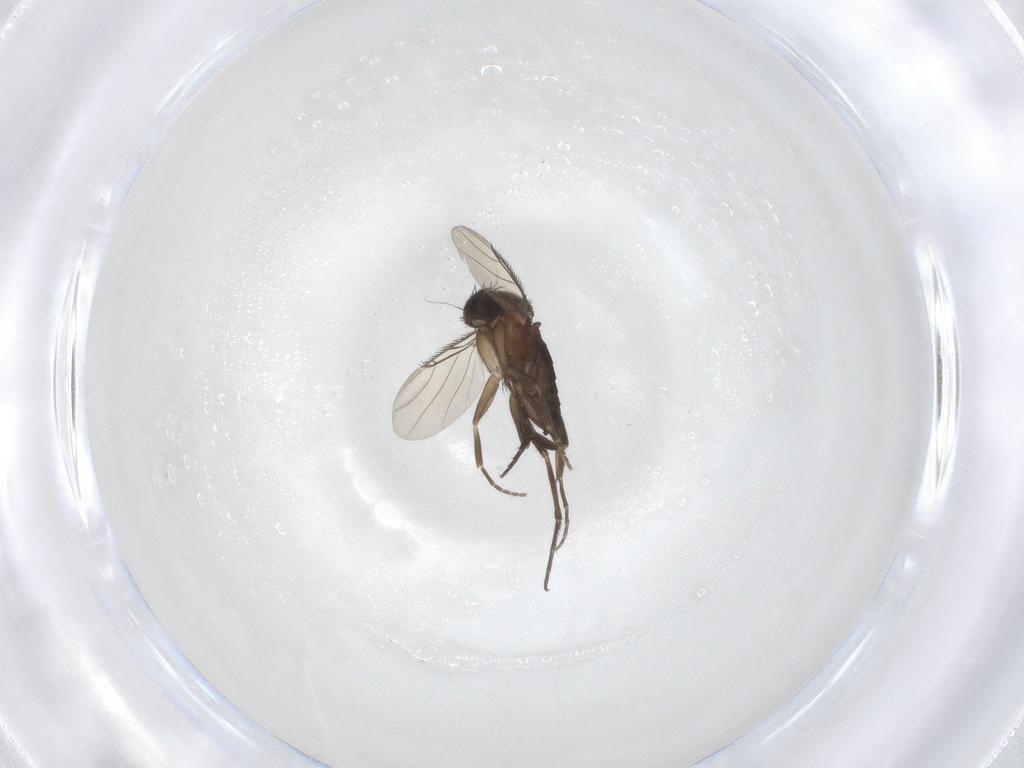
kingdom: Animalia
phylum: Arthropoda
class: Insecta
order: Diptera
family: Phoridae
